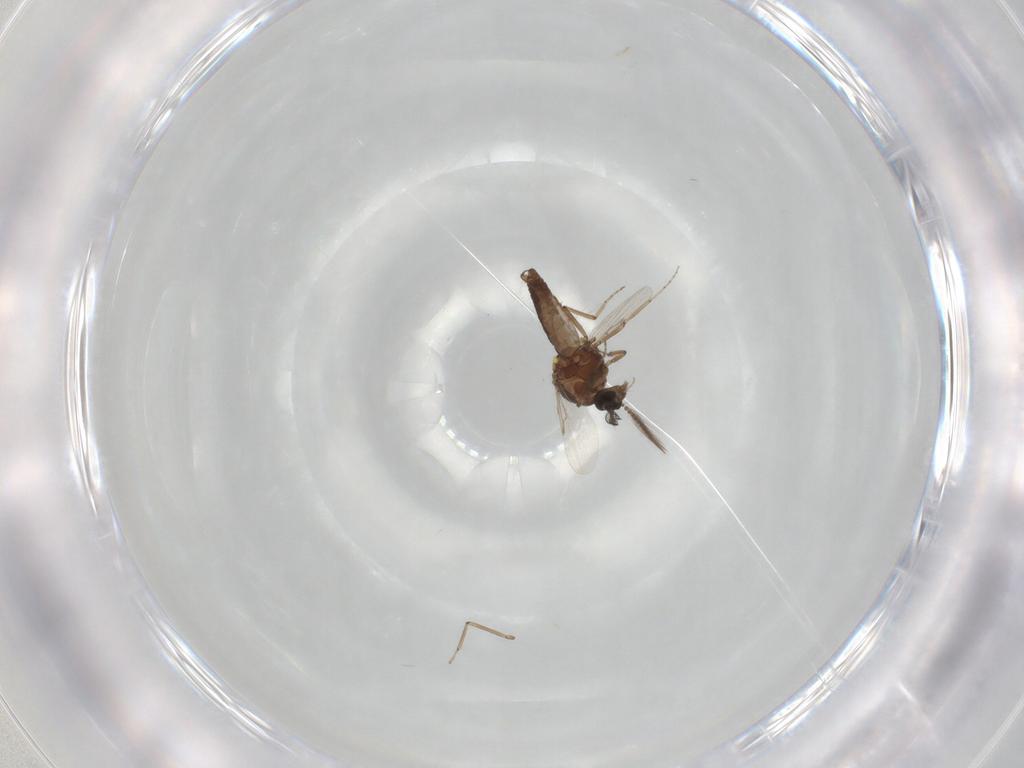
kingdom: Animalia
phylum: Arthropoda
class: Insecta
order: Diptera
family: Ceratopogonidae
